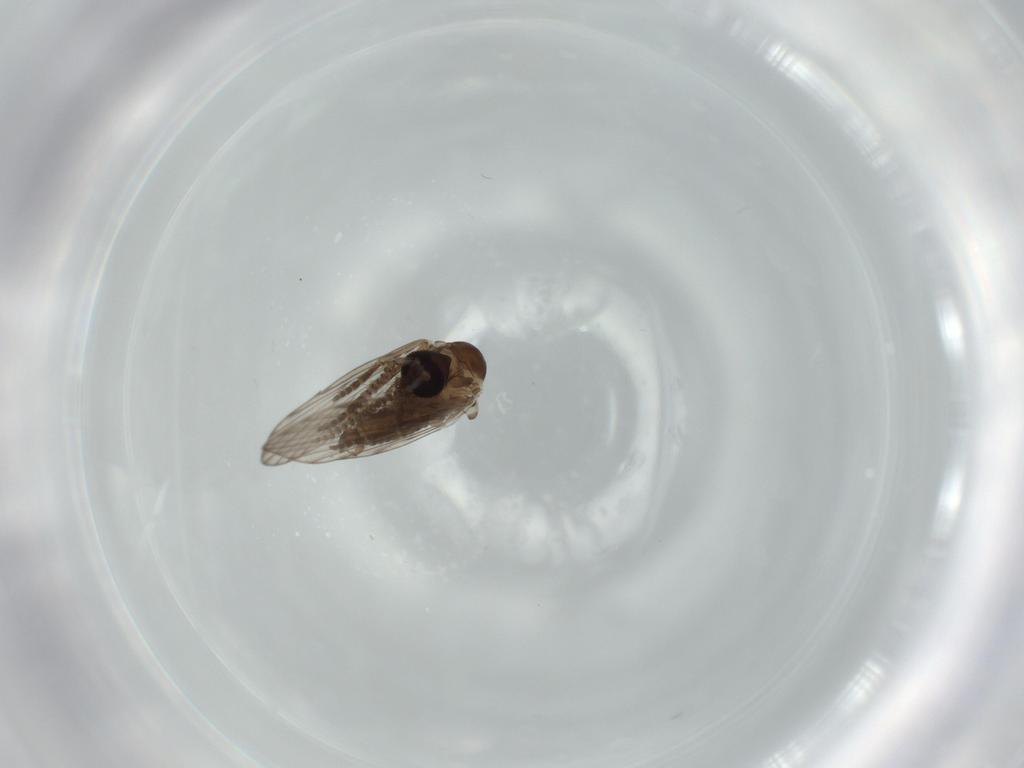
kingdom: Animalia
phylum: Arthropoda
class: Insecta
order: Diptera
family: Psychodidae
